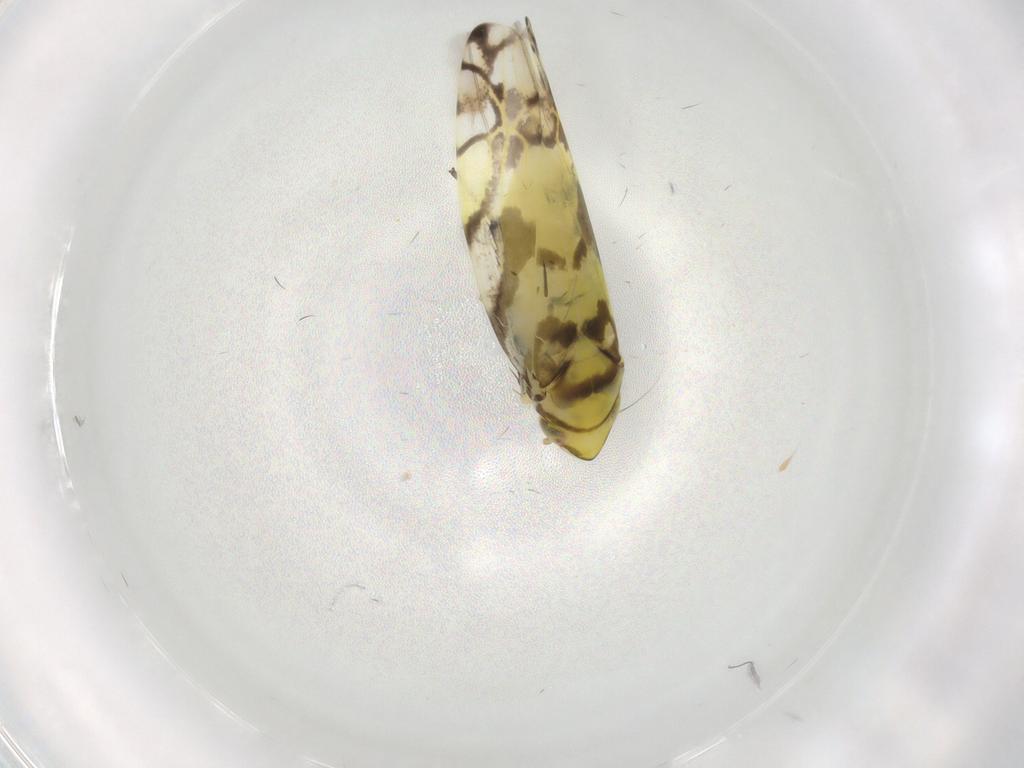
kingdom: Animalia
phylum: Arthropoda
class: Insecta
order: Hemiptera
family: Cicadellidae
